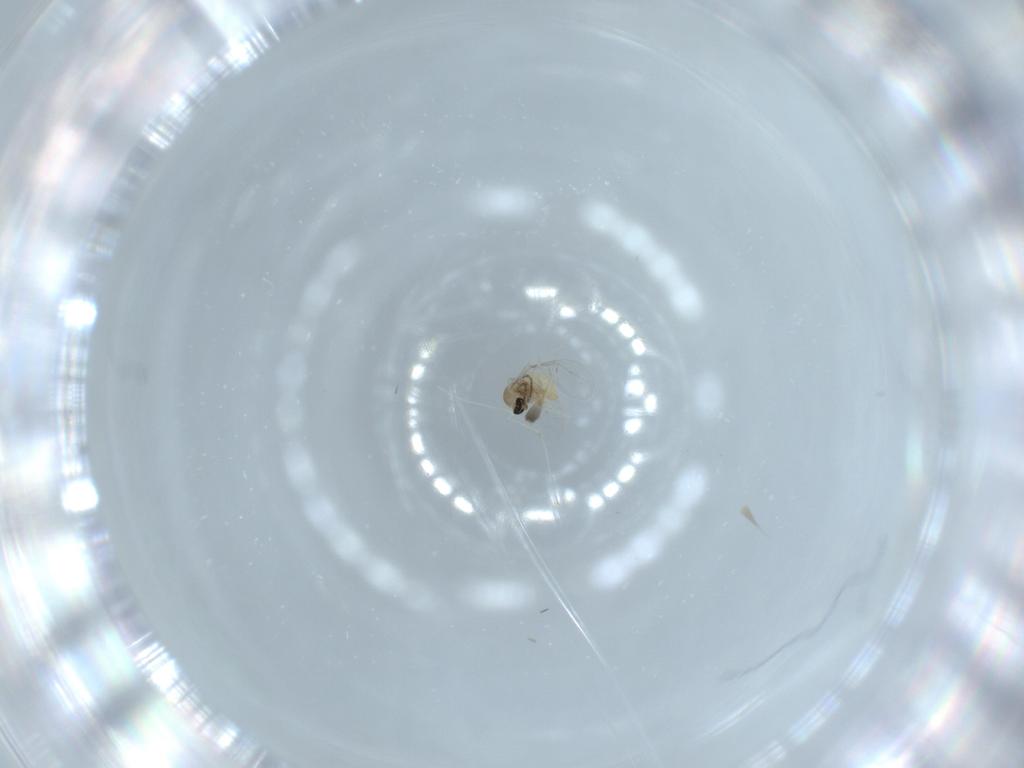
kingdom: Animalia
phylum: Arthropoda
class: Insecta
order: Diptera
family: Cecidomyiidae
